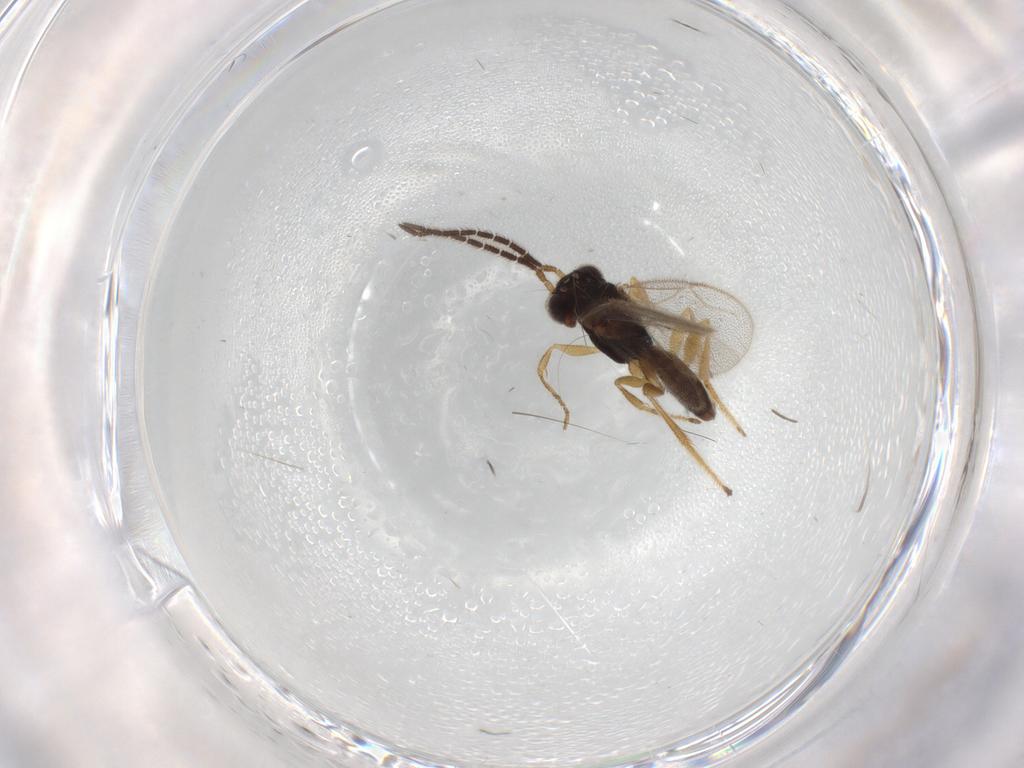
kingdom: Animalia
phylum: Arthropoda
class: Insecta
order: Hymenoptera
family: Dryinidae
